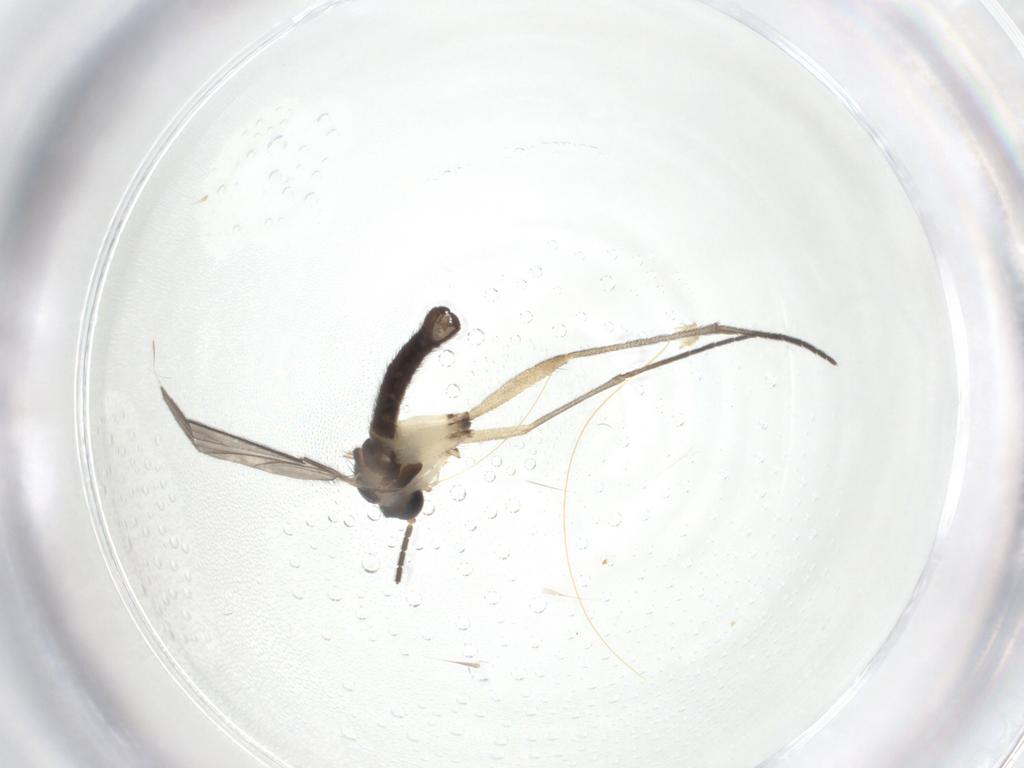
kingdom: Animalia
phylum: Arthropoda
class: Insecta
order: Diptera
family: Sciaridae
